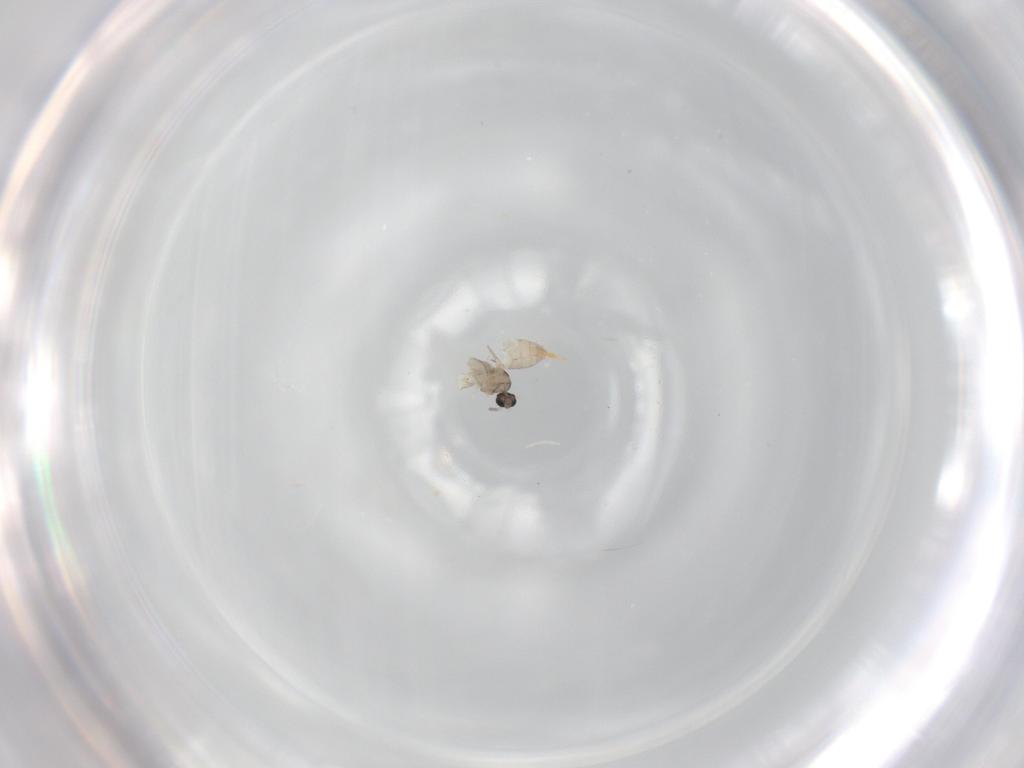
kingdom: Animalia
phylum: Arthropoda
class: Insecta
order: Diptera
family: Cecidomyiidae
